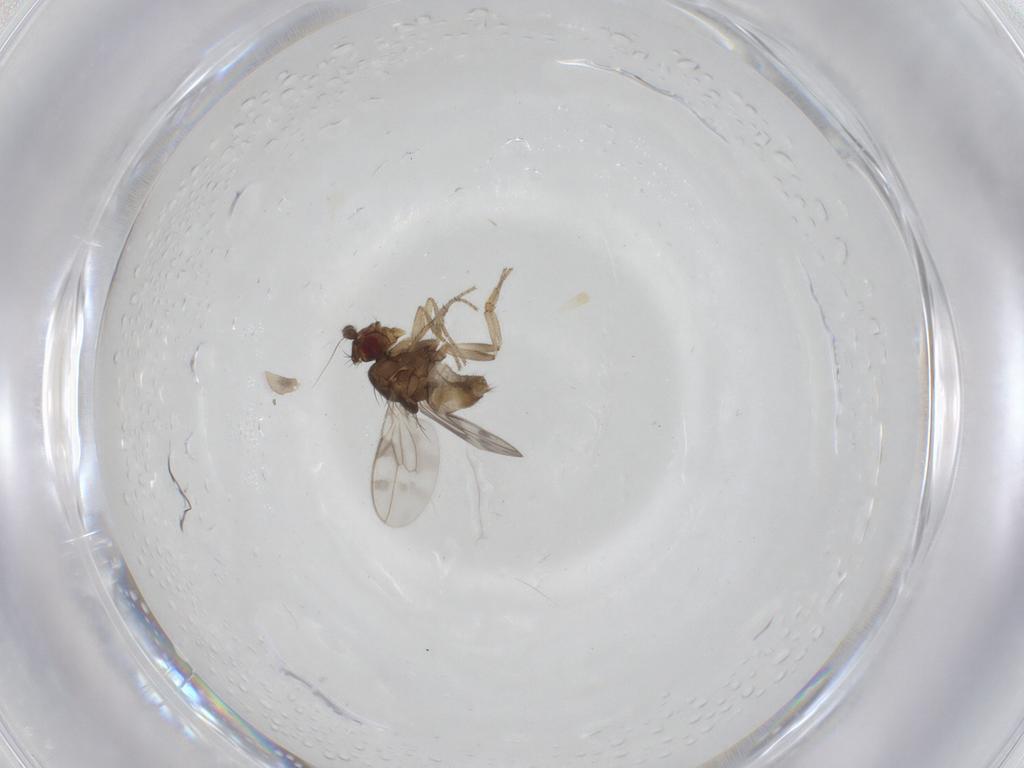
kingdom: Animalia
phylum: Arthropoda
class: Insecta
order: Diptera
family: Sphaeroceridae
